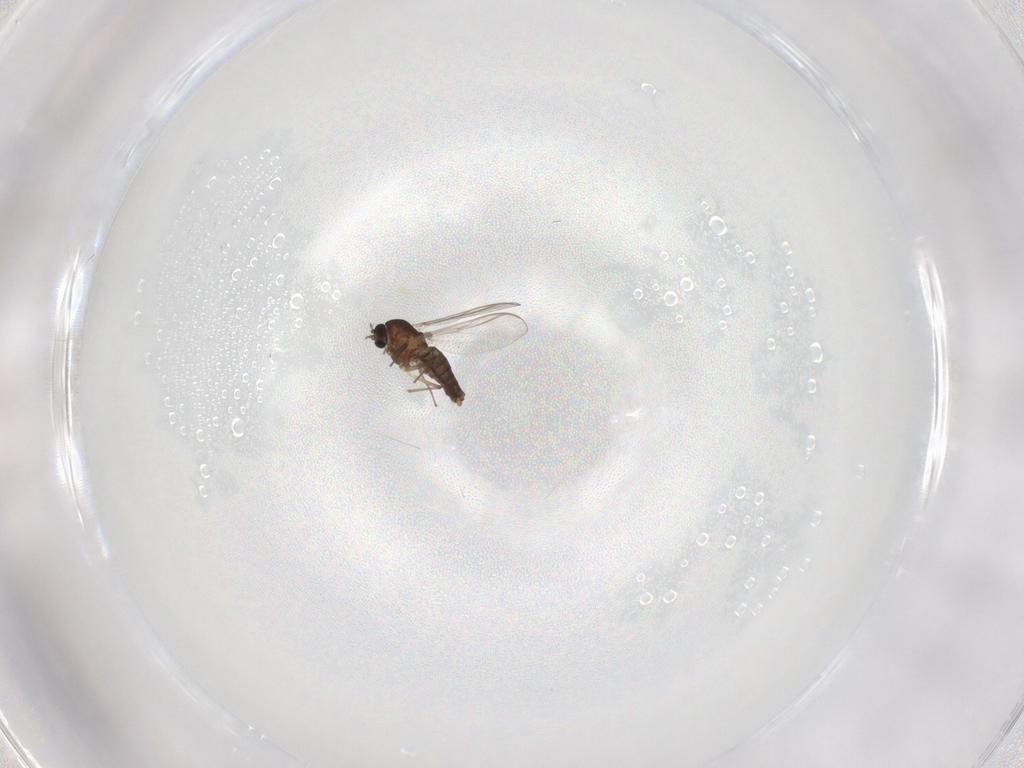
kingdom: Animalia
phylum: Arthropoda
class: Insecta
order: Diptera
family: Chironomidae
